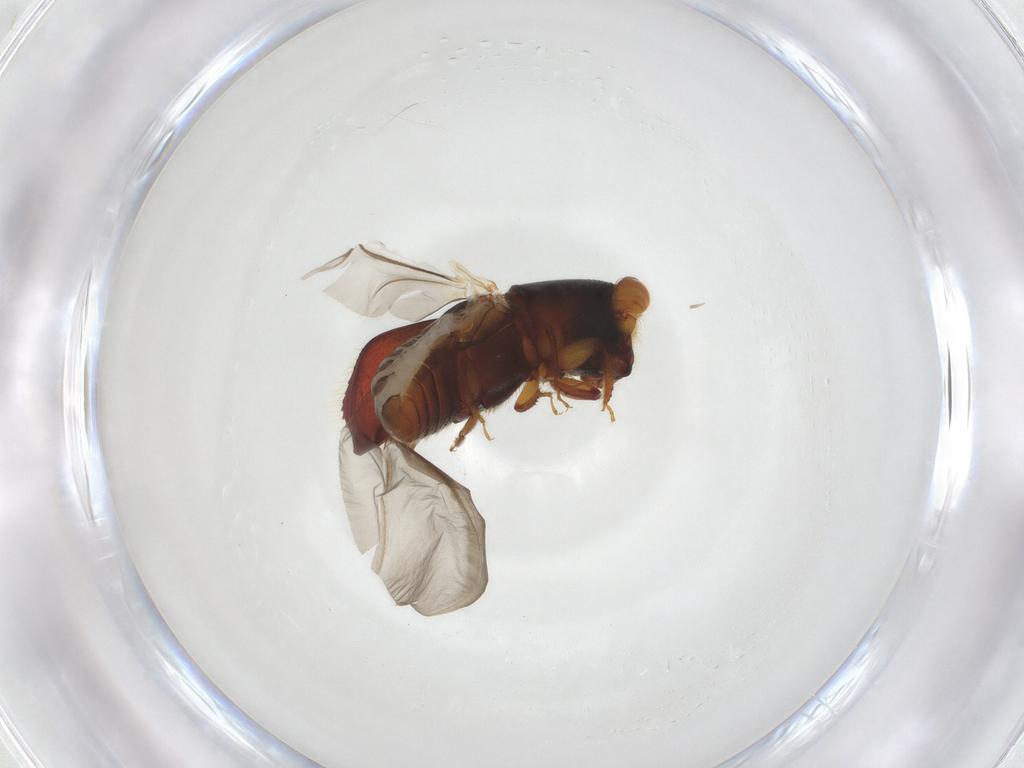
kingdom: Animalia
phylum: Arthropoda
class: Insecta
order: Coleoptera
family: Curculionidae
